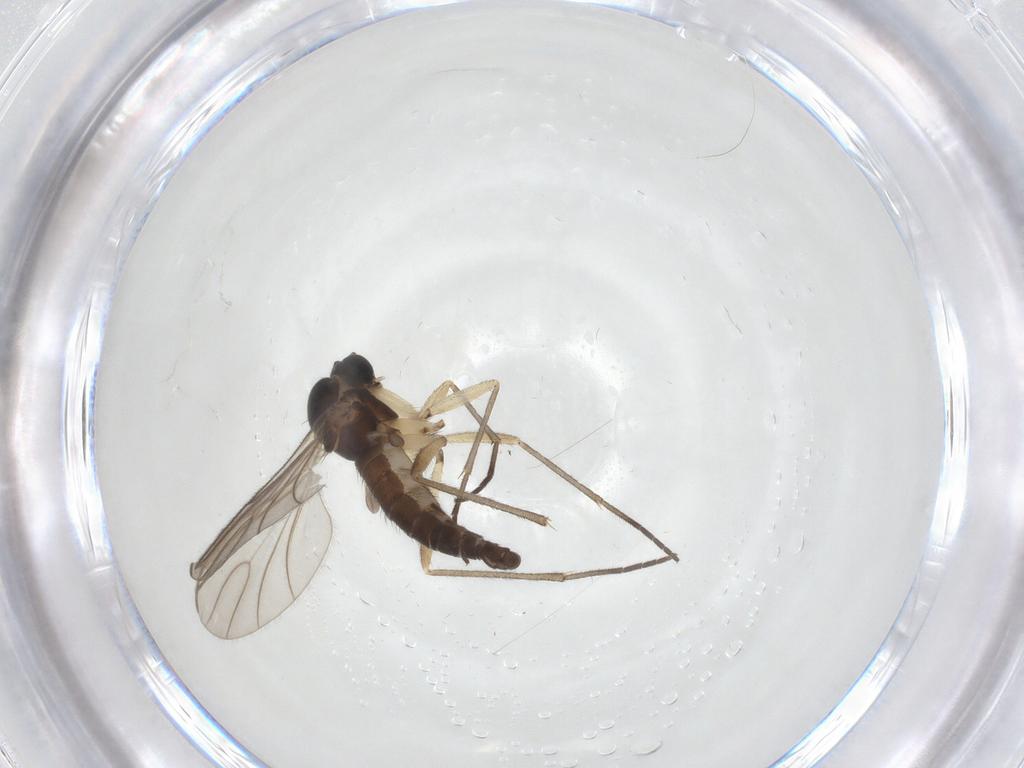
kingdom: Animalia
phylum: Arthropoda
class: Insecta
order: Diptera
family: Sciaridae
